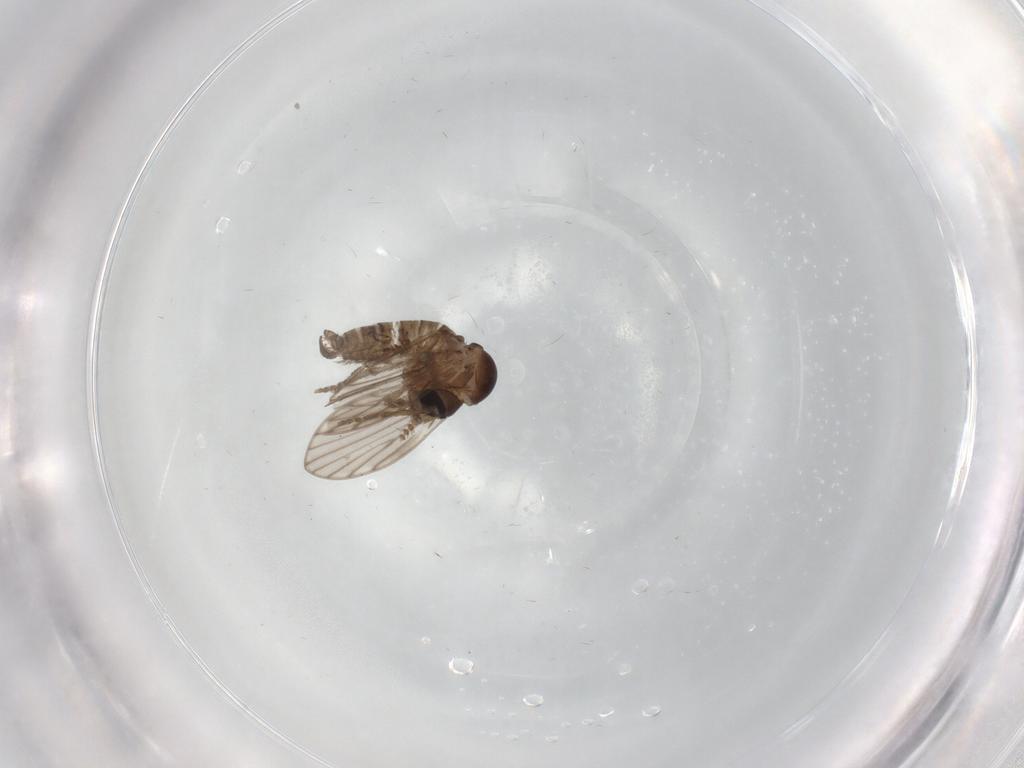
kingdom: Animalia
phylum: Arthropoda
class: Insecta
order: Diptera
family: Psychodidae
